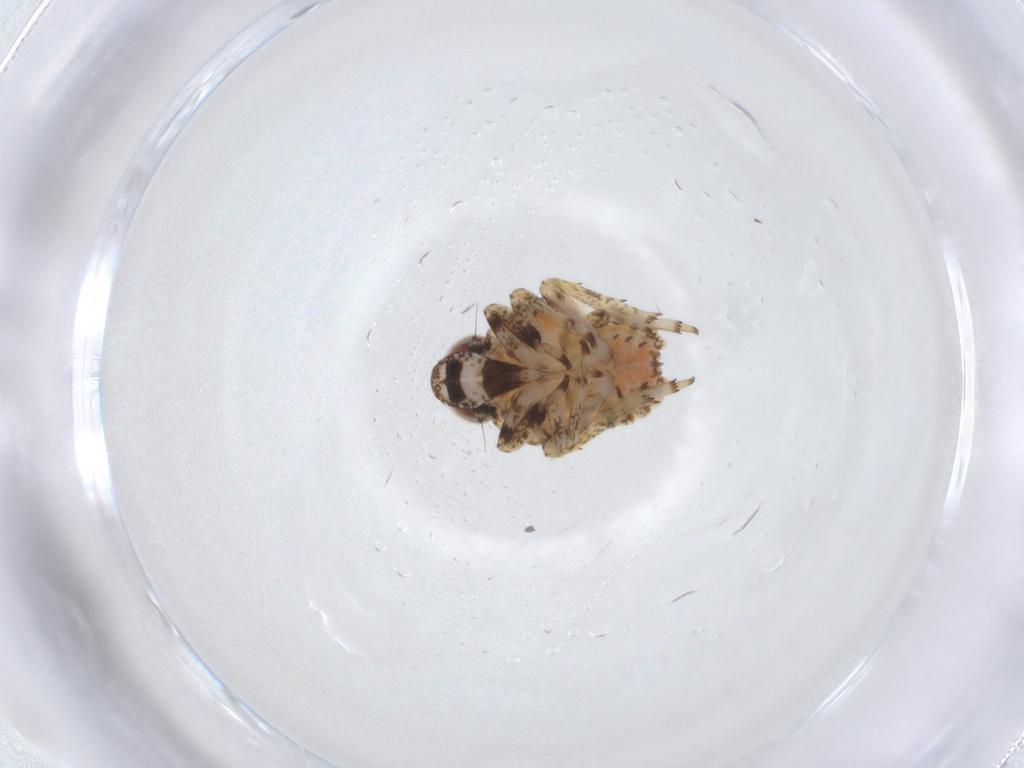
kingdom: Animalia
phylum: Arthropoda
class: Insecta
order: Hemiptera
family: Issidae
